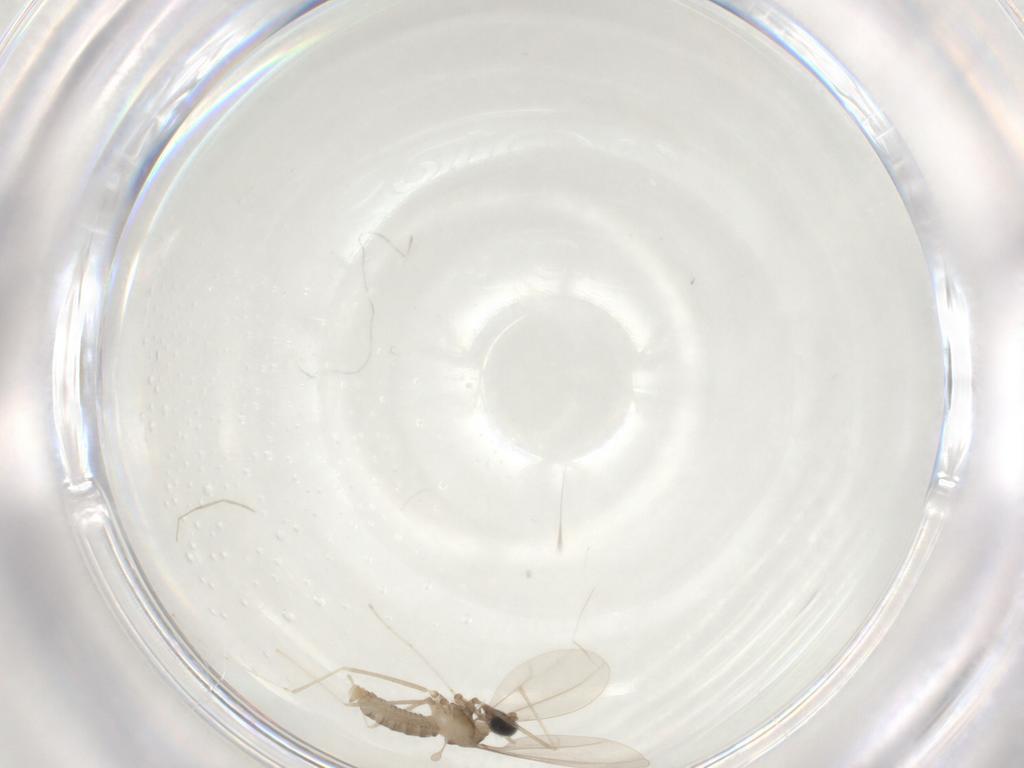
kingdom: Animalia
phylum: Arthropoda
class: Insecta
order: Diptera
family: Cecidomyiidae
